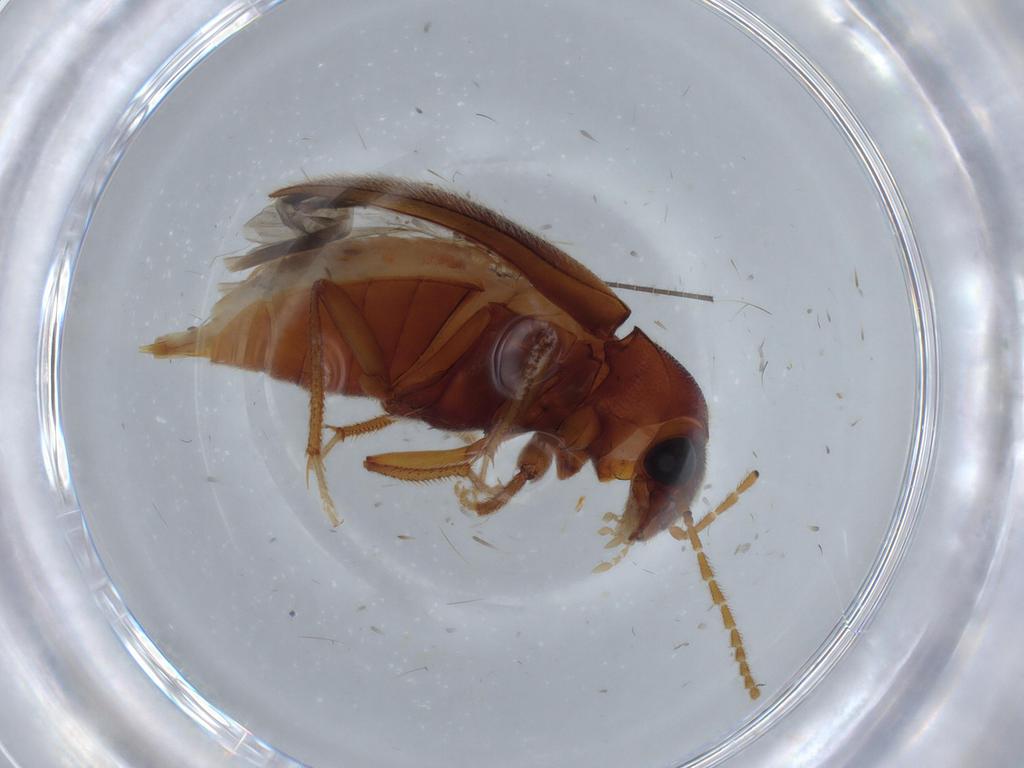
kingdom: Animalia
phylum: Arthropoda
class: Insecta
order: Coleoptera
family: Ptilodactylidae
